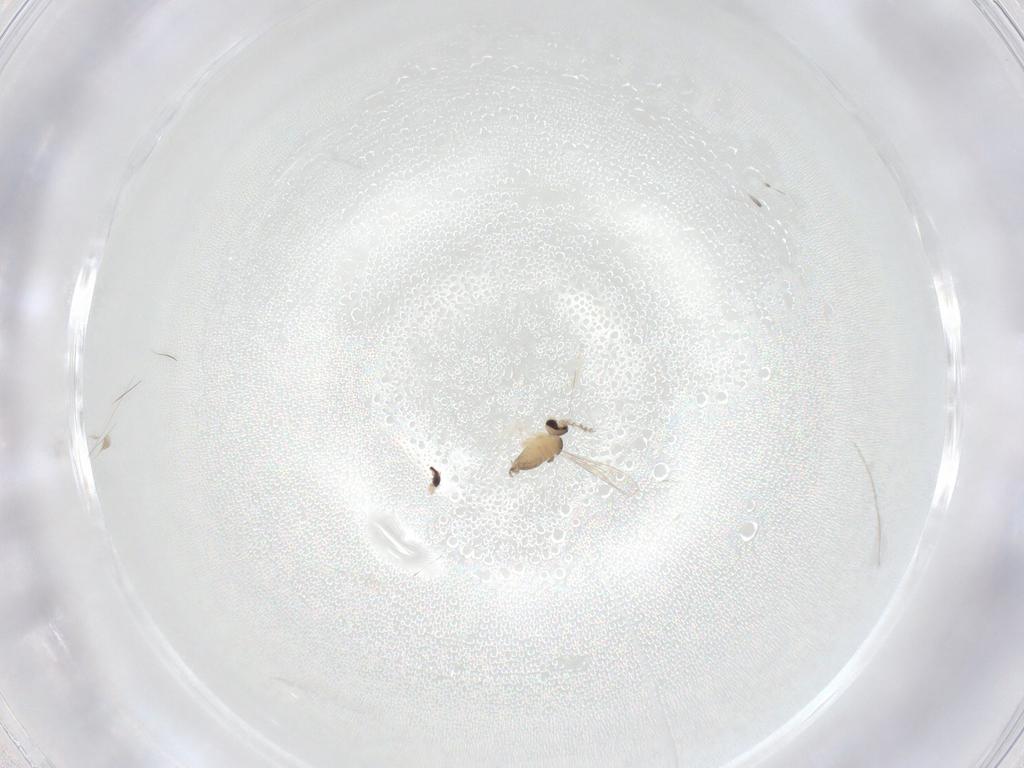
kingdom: Animalia
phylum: Arthropoda
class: Insecta
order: Diptera
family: Cecidomyiidae
